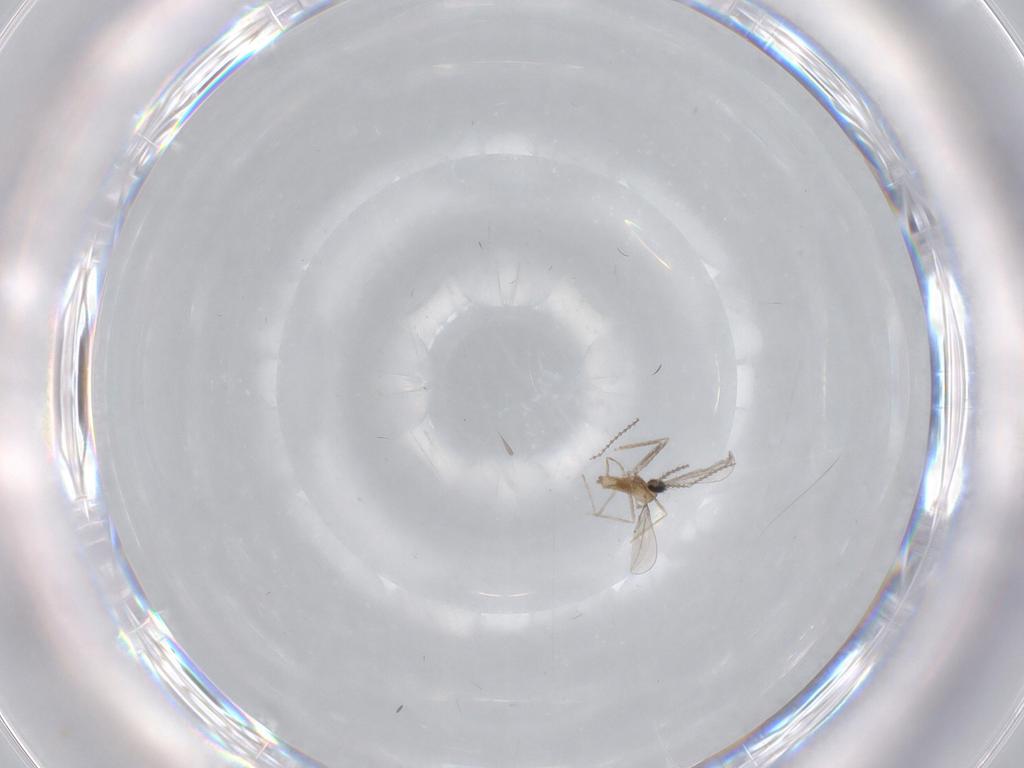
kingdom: Animalia
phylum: Arthropoda
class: Insecta
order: Diptera
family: Cecidomyiidae
